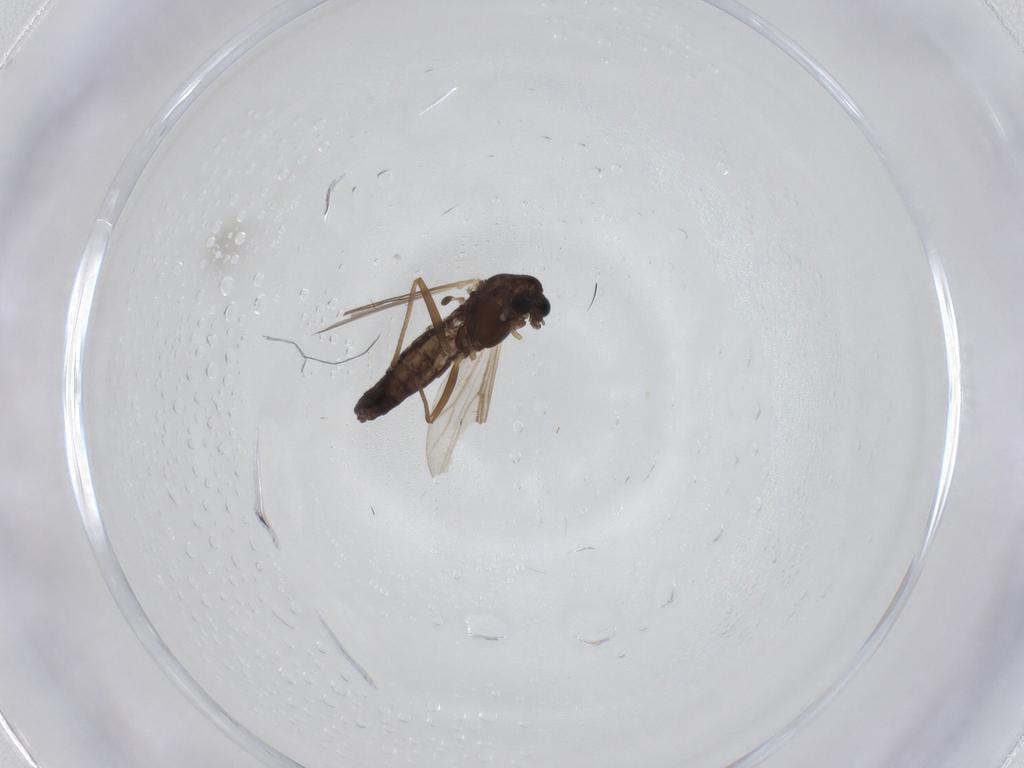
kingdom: Animalia
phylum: Arthropoda
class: Insecta
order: Diptera
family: Chironomidae
